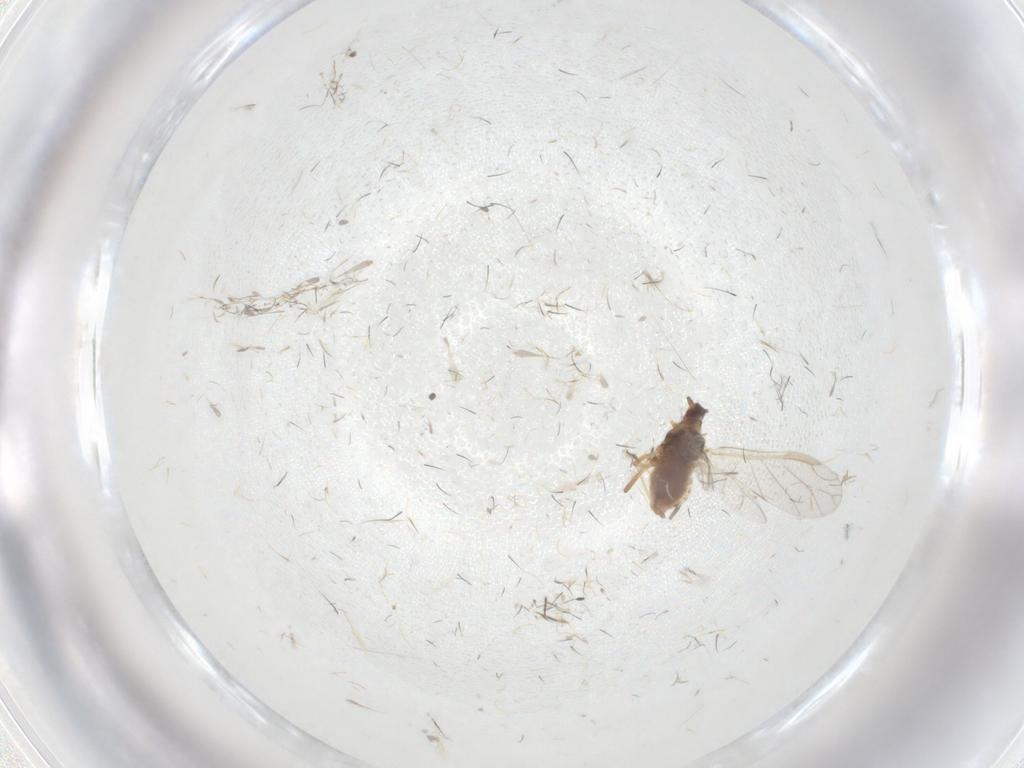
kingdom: Animalia
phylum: Arthropoda
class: Insecta
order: Hemiptera
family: Aphididae
